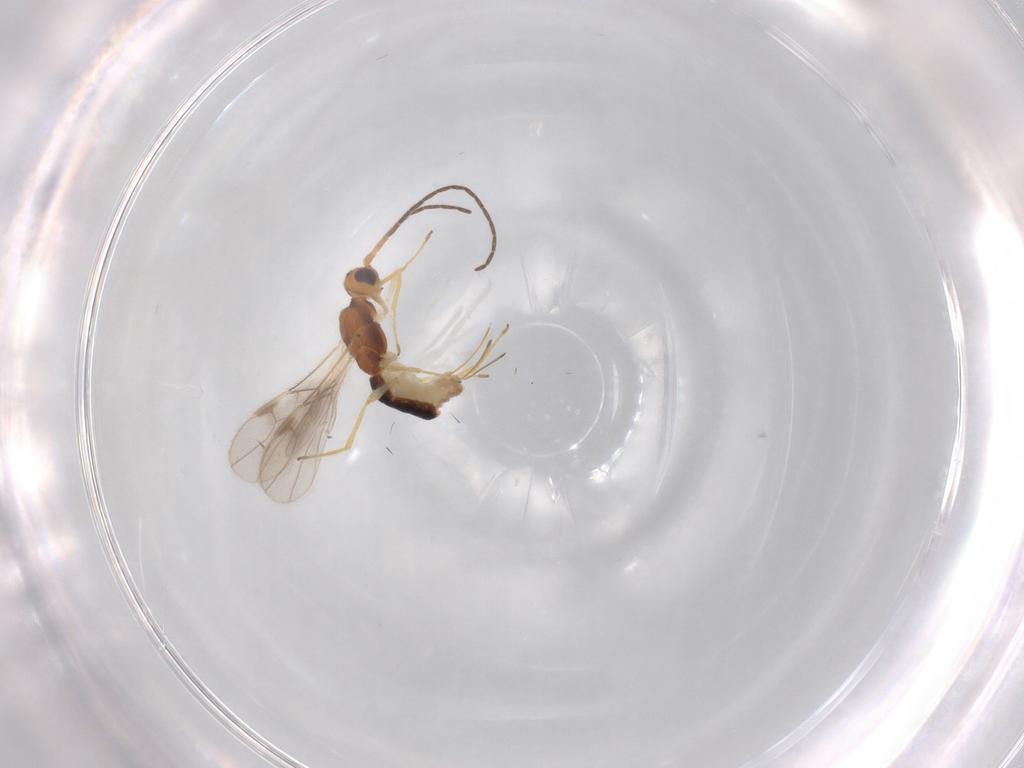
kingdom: Animalia
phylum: Arthropoda
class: Insecta
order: Hymenoptera
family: Braconidae
